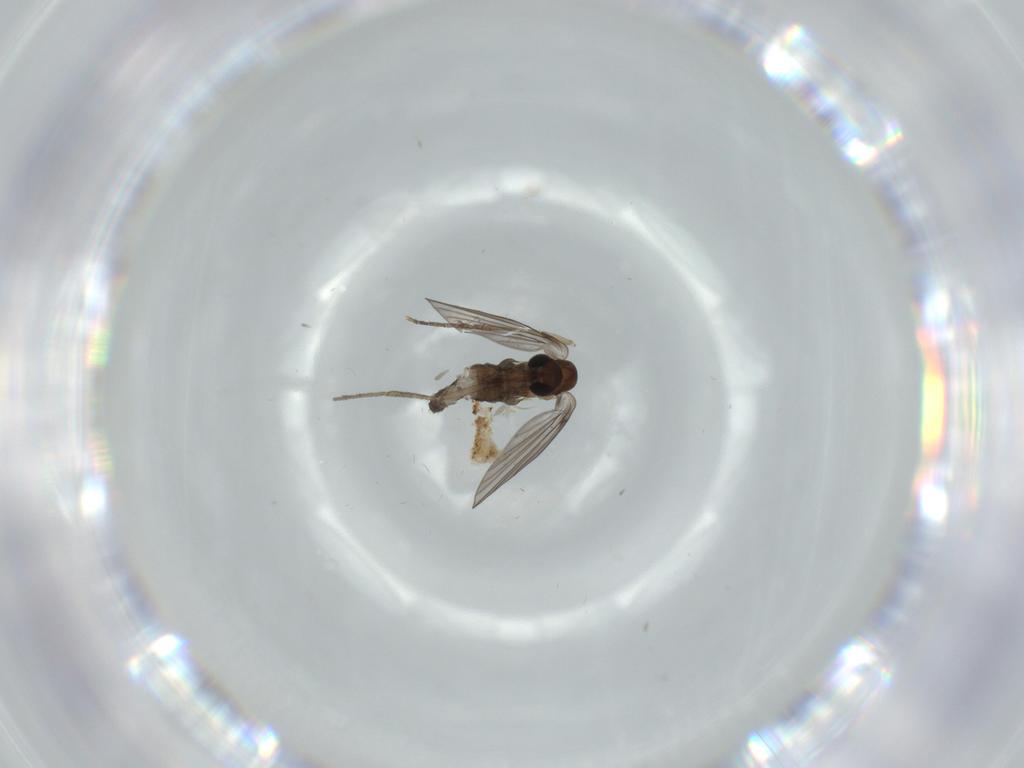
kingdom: Animalia
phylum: Arthropoda
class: Insecta
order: Diptera
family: Psychodidae
